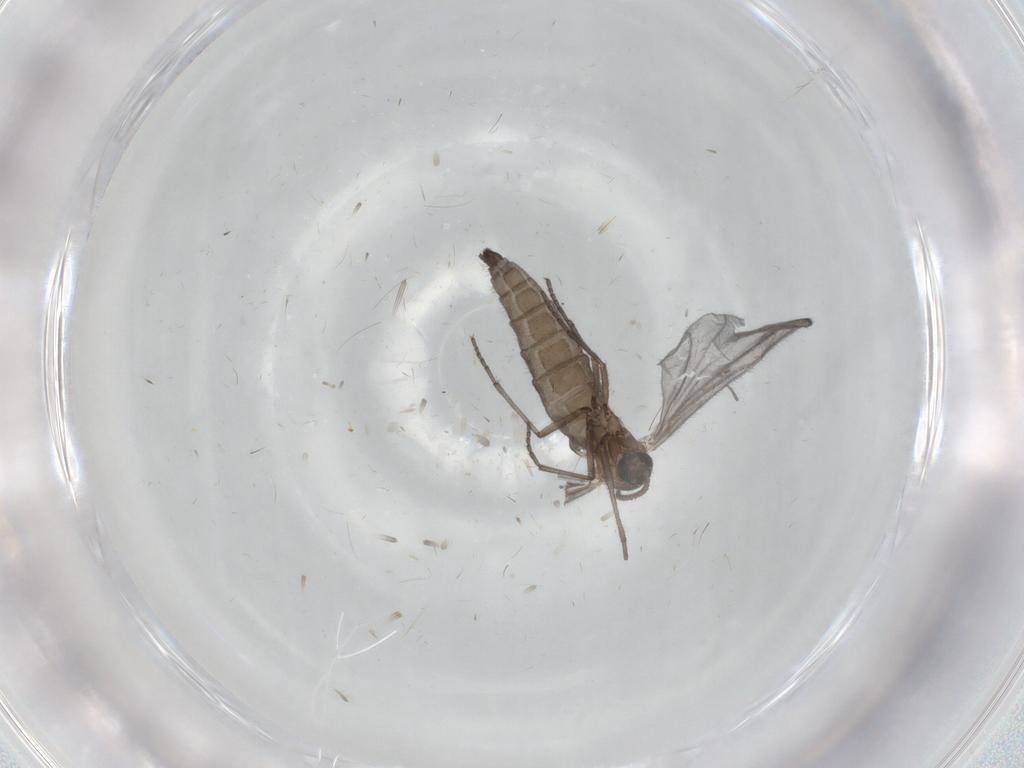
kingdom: Animalia
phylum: Arthropoda
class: Insecta
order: Diptera
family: Sciaridae
